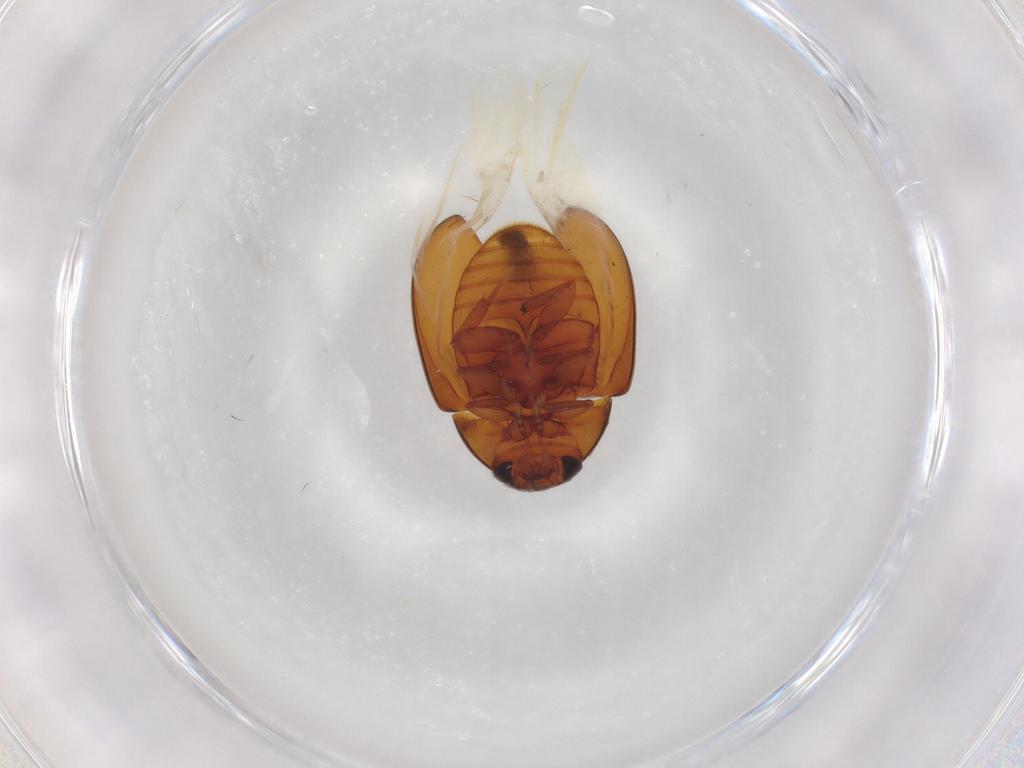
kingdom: Animalia
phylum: Arthropoda
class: Insecta
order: Coleoptera
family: Phalacridae
